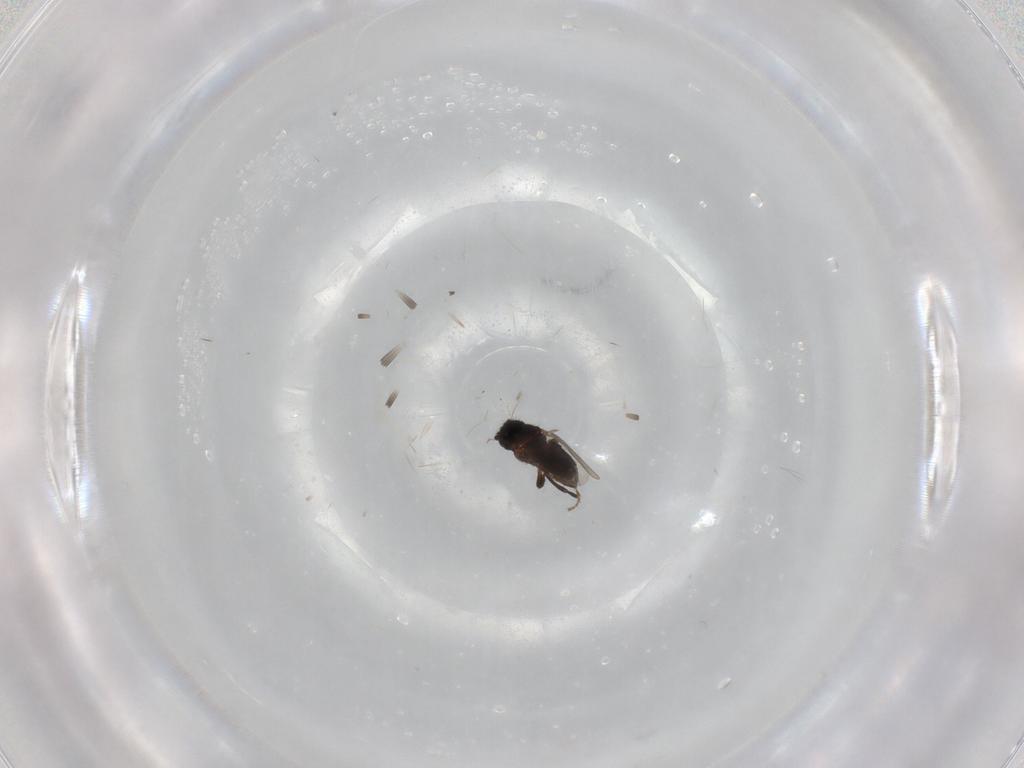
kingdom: Animalia
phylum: Arthropoda
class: Insecta
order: Diptera
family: Sphaeroceridae
